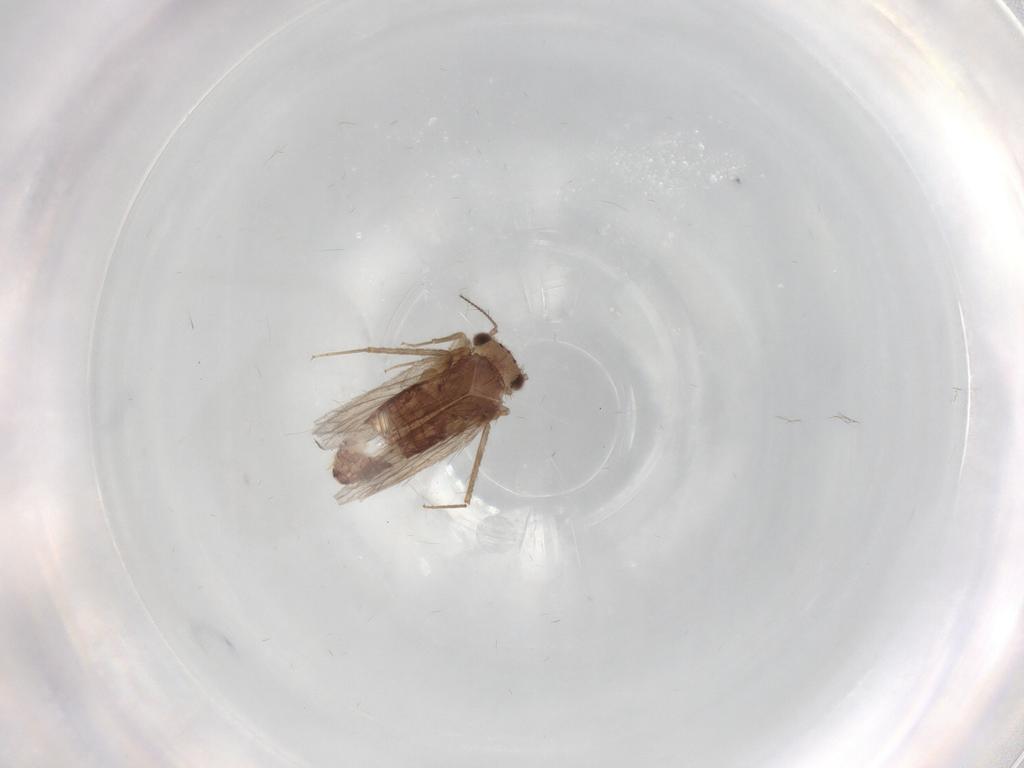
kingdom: Animalia
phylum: Arthropoda
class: Insecta
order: Psocodea
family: Lepidopsocidae
